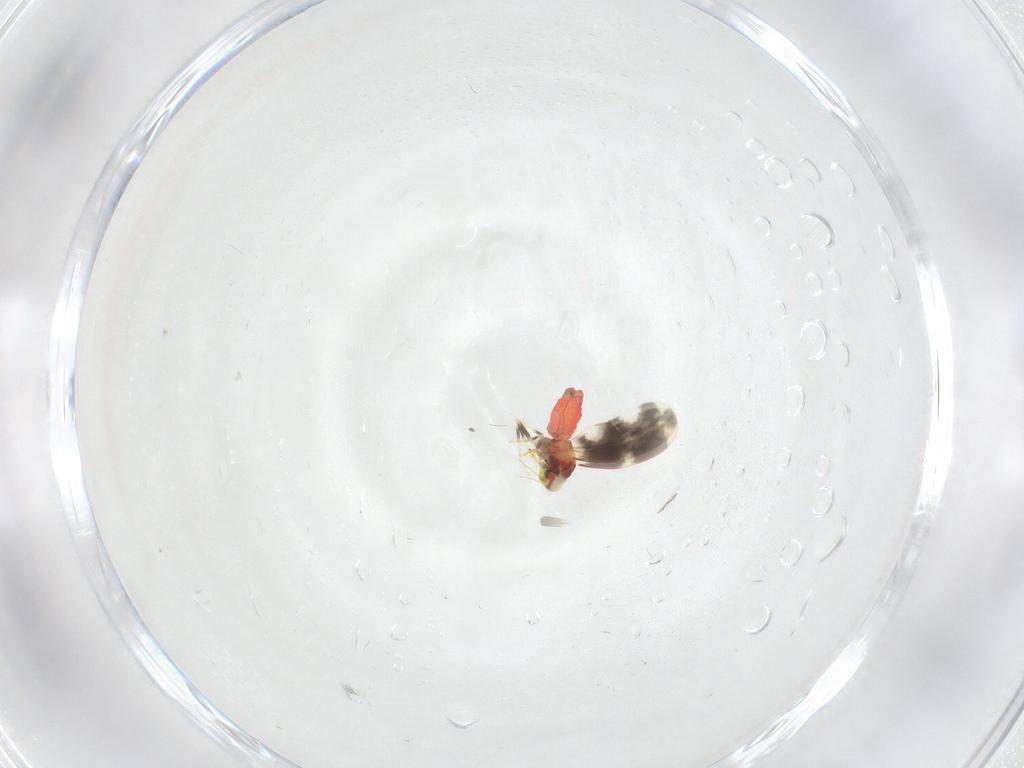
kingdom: Animalia
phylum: Arthropoda
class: Insecta
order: Hemiptera
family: Aleyrodidae
